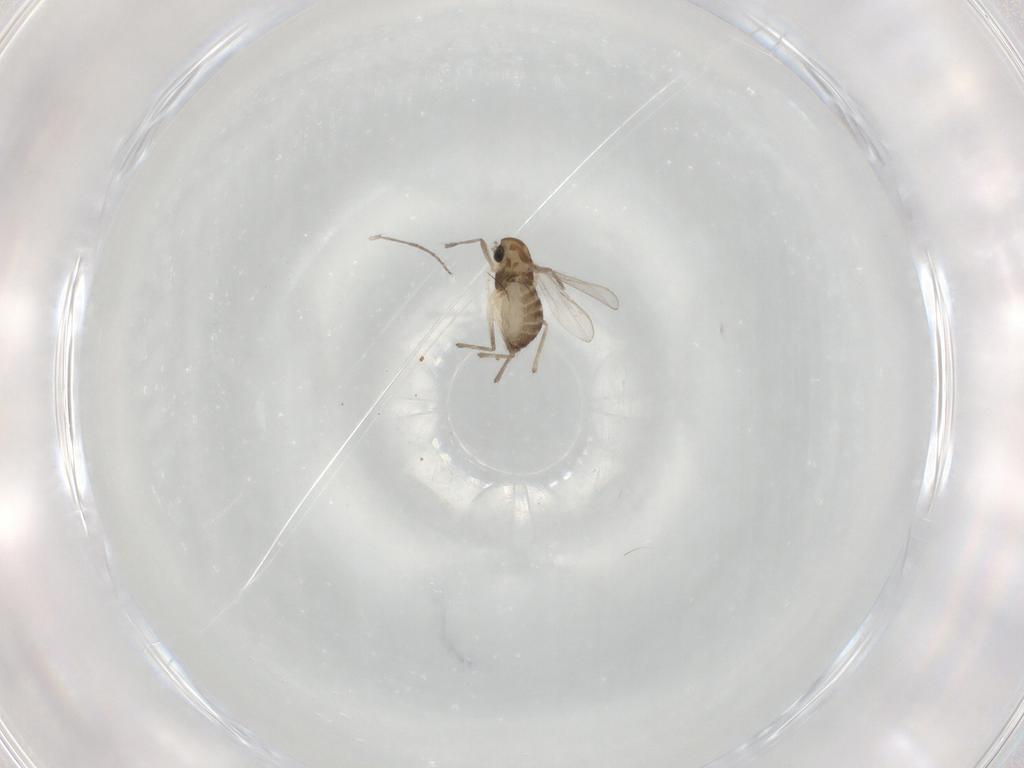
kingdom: Animalia
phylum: Arthropoda
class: Insecta
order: Diptera
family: Chironomidae
